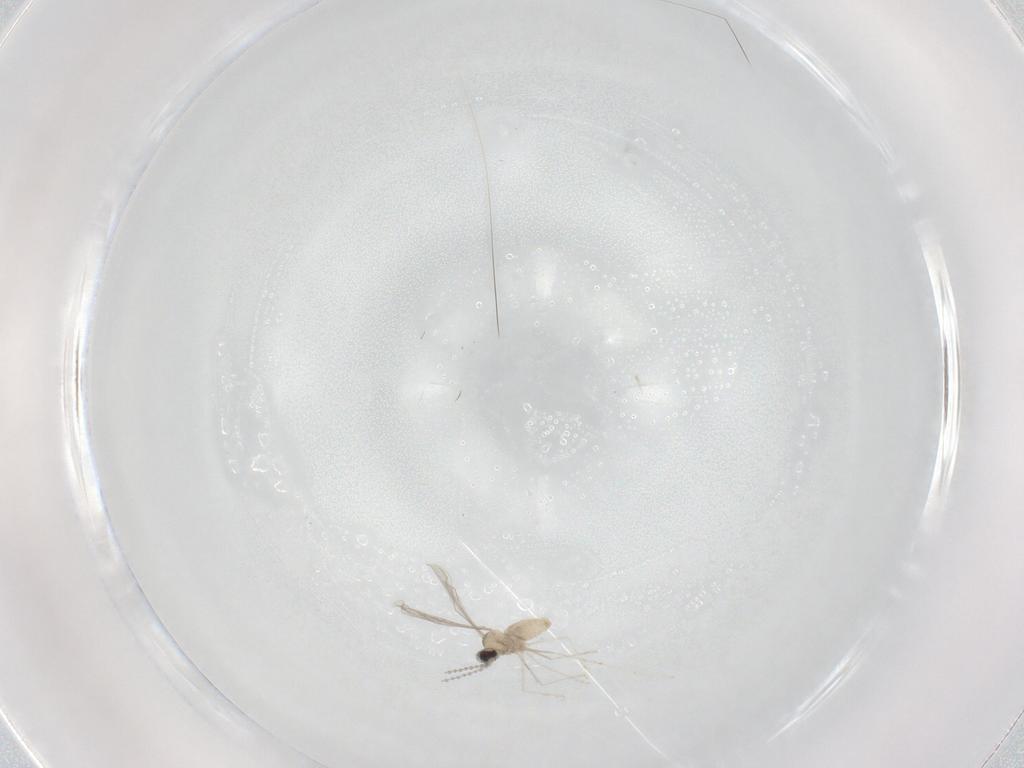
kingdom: Animalia
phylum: Arthropoda
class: Insecta
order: Diptera
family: Cecidomyiidae
